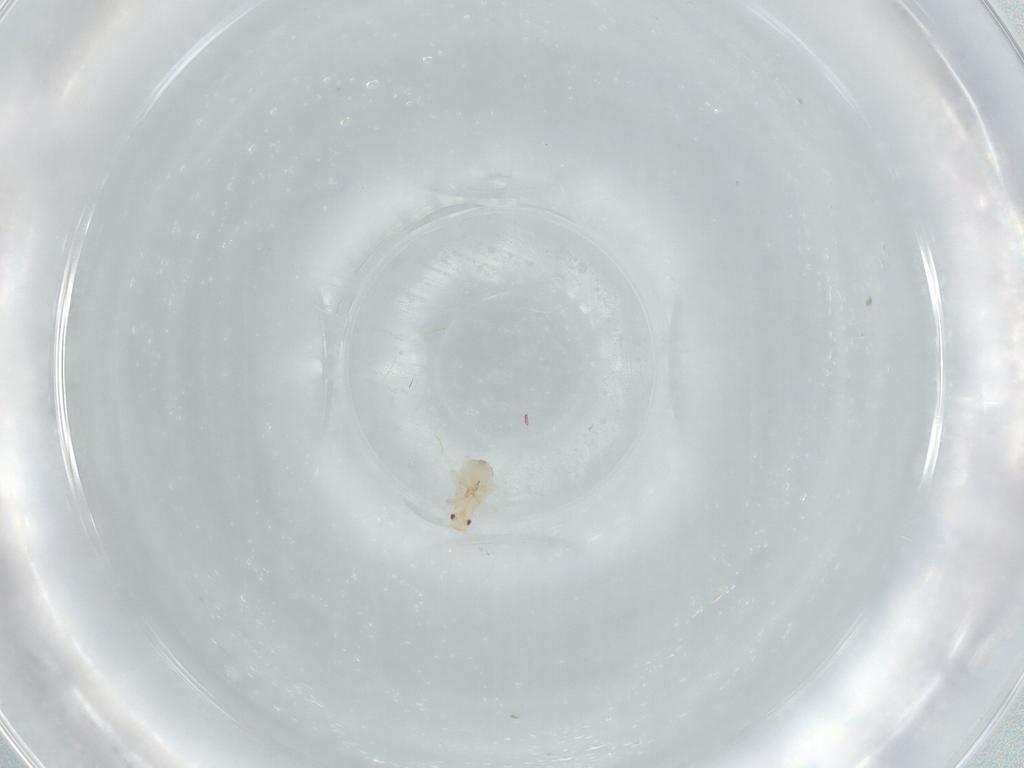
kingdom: Animalia
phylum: Arthropoda
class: Insecta
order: Hemiptera
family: Aphididae
